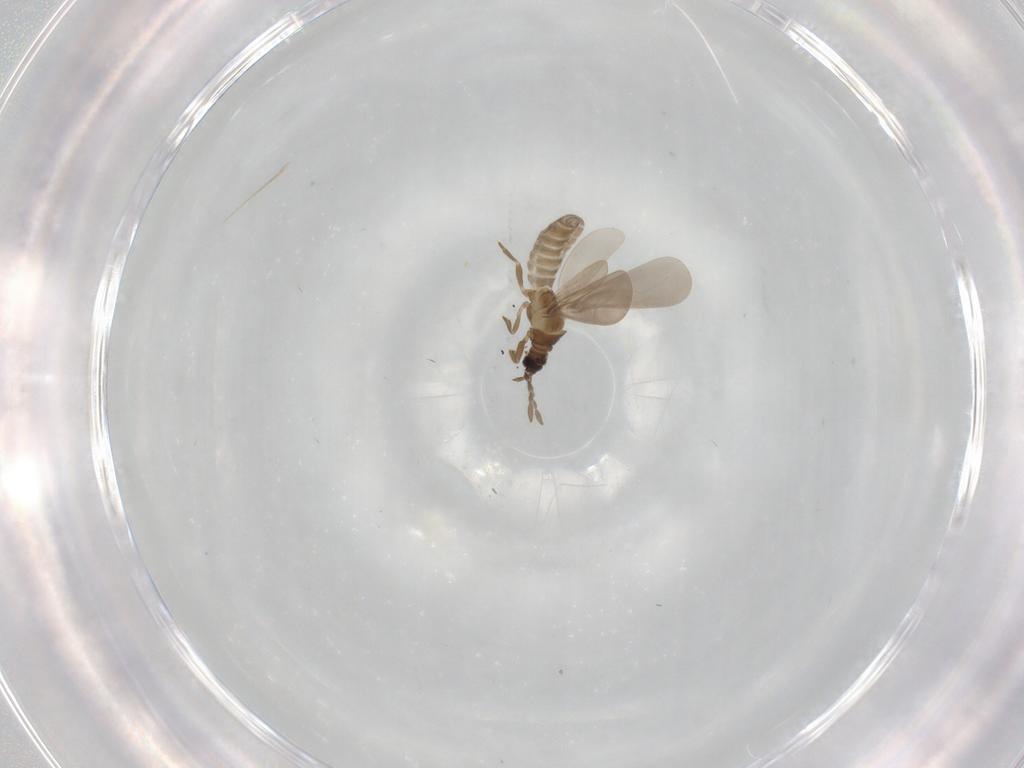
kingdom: Animalia
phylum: Arthropoda
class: Insecta
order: Hemiptera
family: Enicocephalidae
